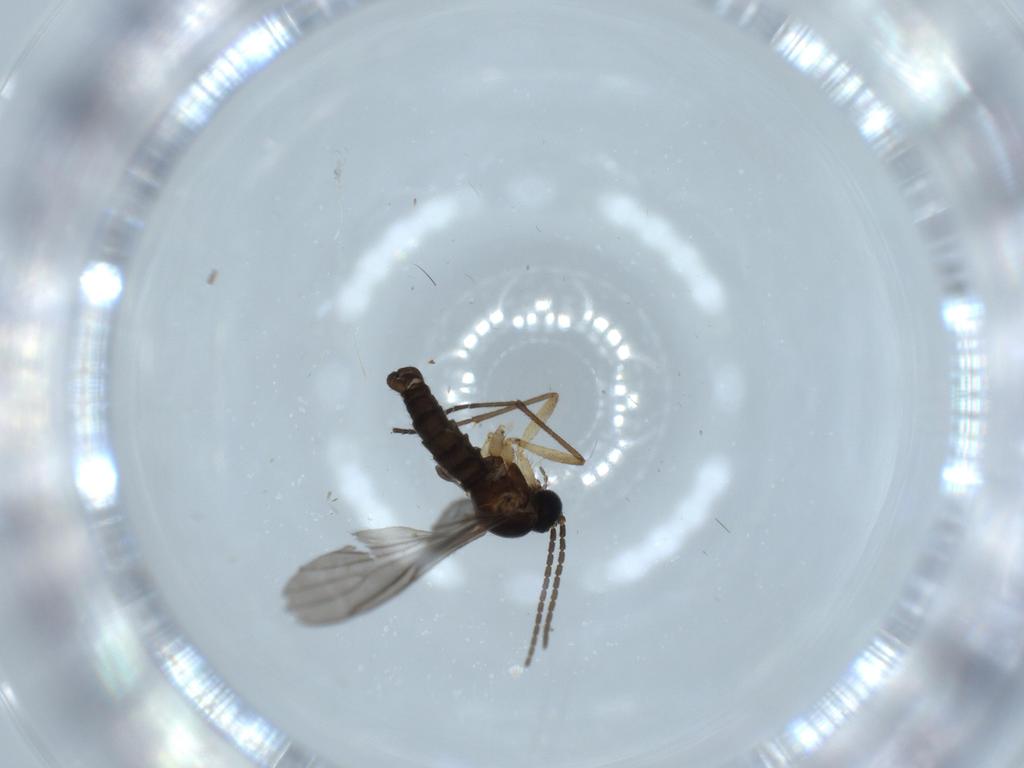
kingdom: Animalia
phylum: Arthropoda
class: Insecta
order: Diptera
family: Sciaridae
